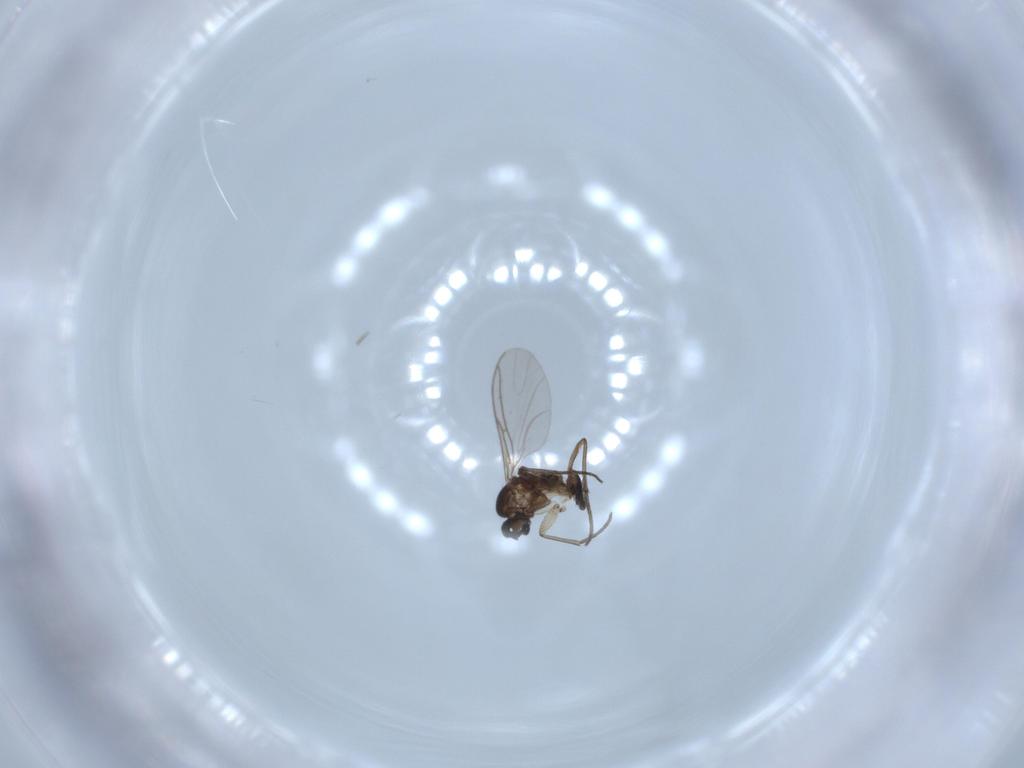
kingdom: Animalia
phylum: Arthropoda
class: Insecta
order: Diptera
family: Sciaridae
